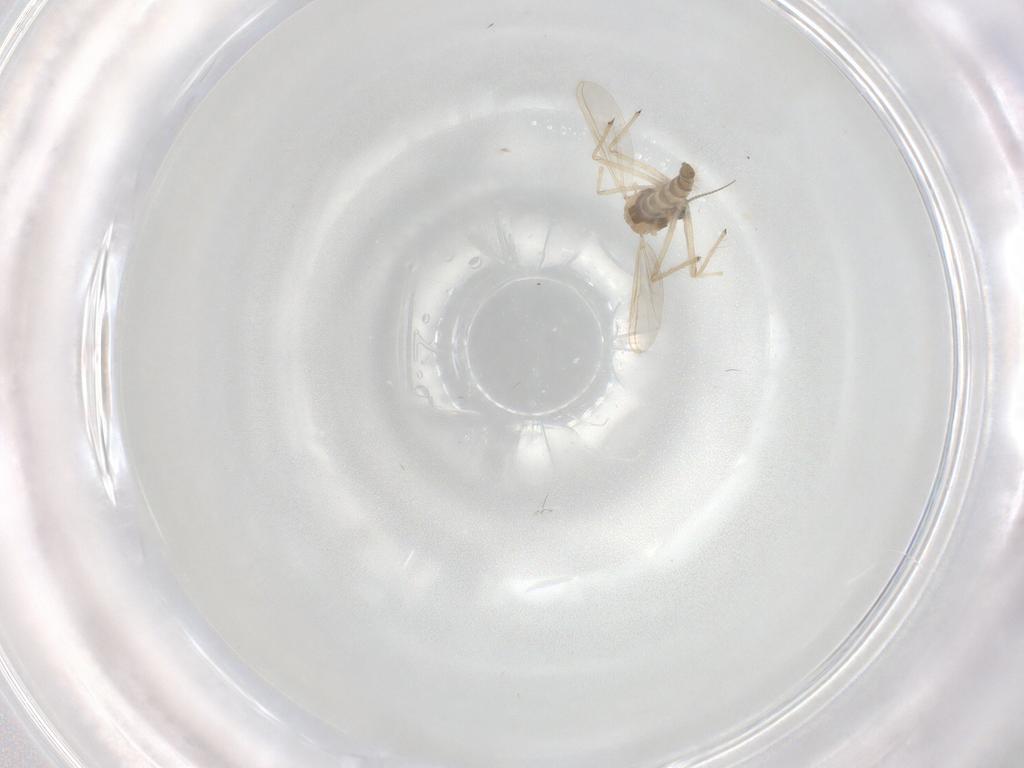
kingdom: Animalia
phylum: Arthropoda
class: Insecta
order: Diptera
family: Chironomidae
